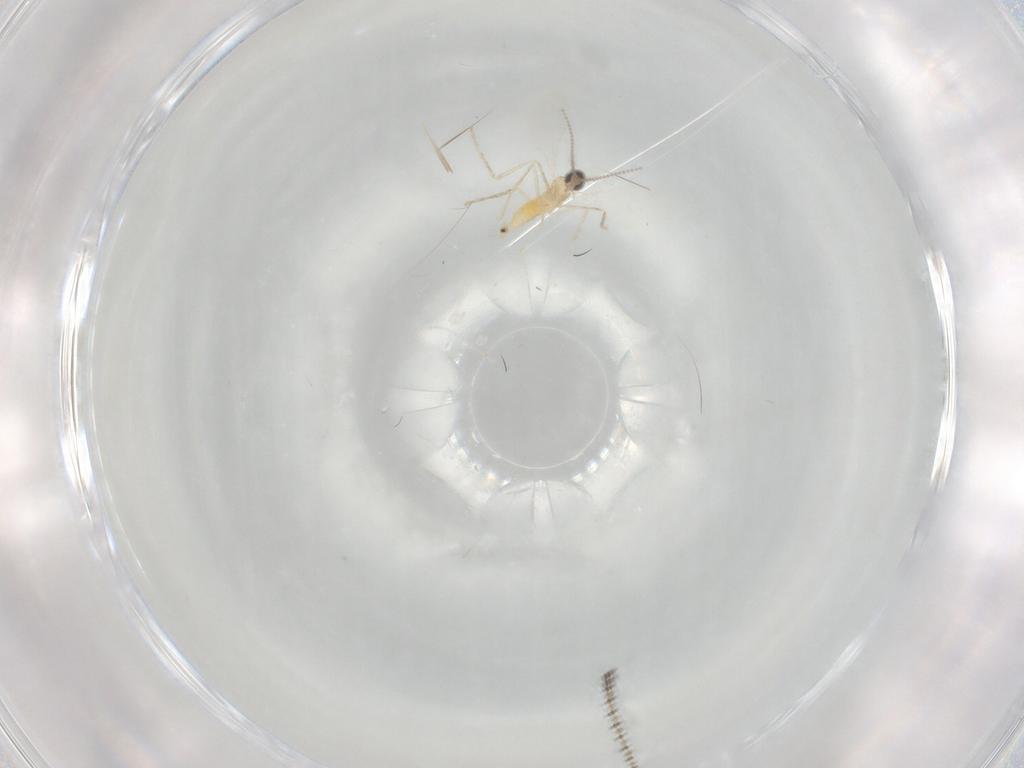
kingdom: Animalia
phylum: Arthropoda
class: Insecta
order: Diptera
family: Cecidomyiidae
